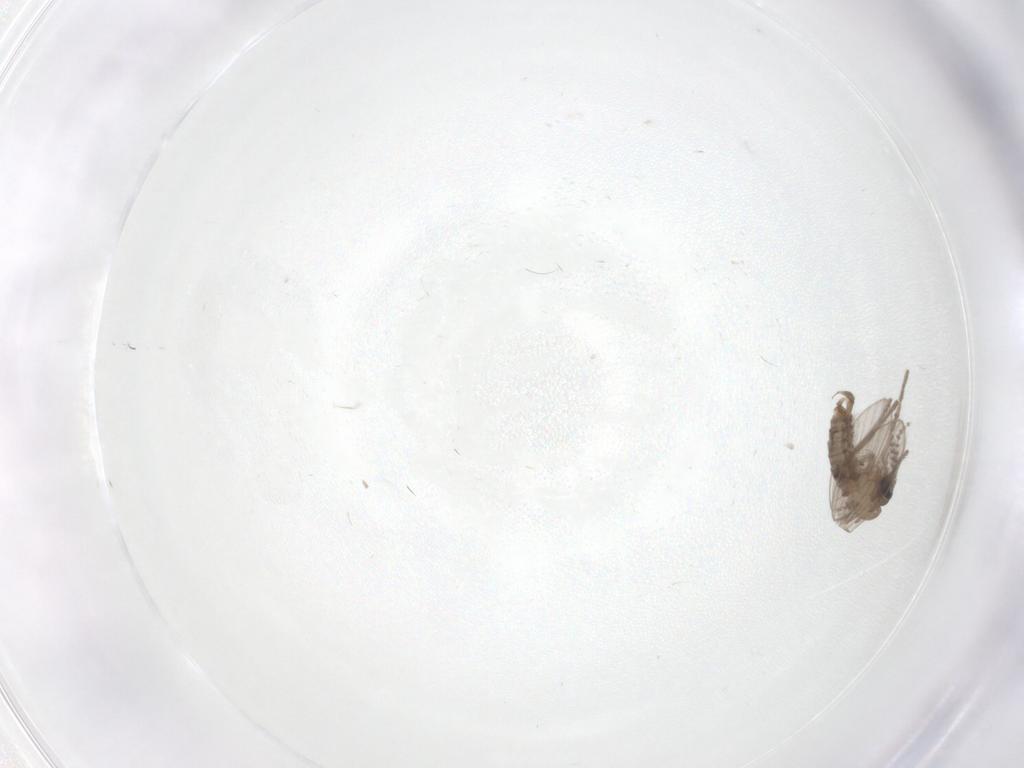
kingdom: Animalia
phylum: Arthropoda
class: Insecta
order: Diptera
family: Psychodidae
